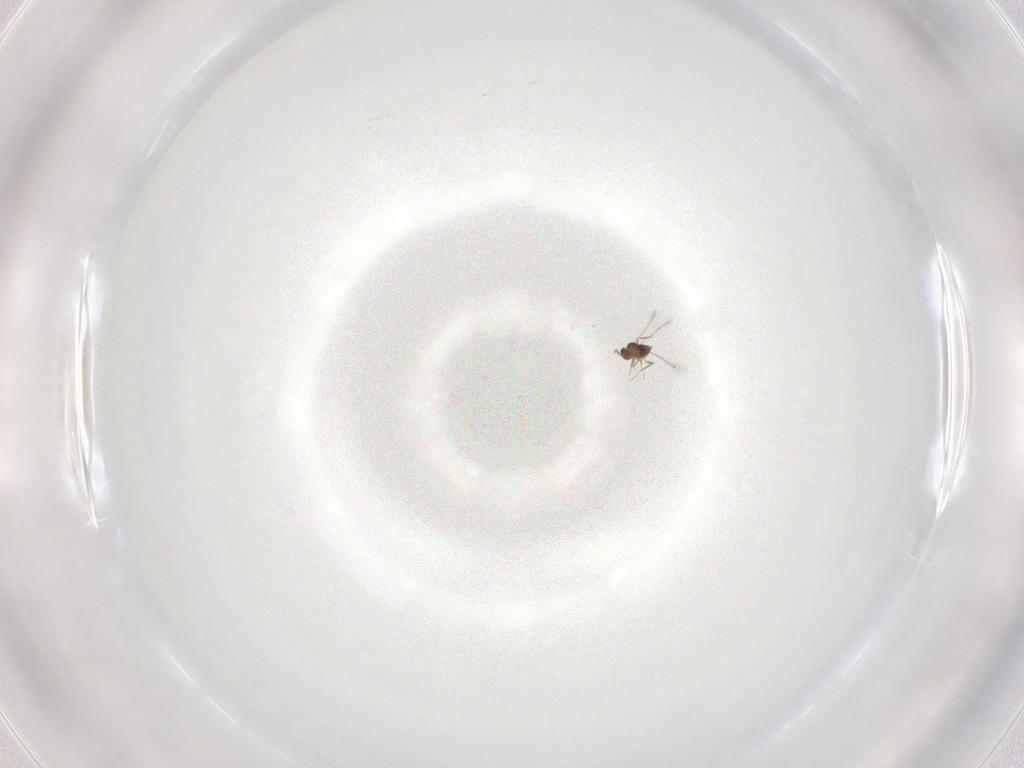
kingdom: Animalia
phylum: Arthropoda
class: Insecta
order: Hymenoptera
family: Mymaridae
